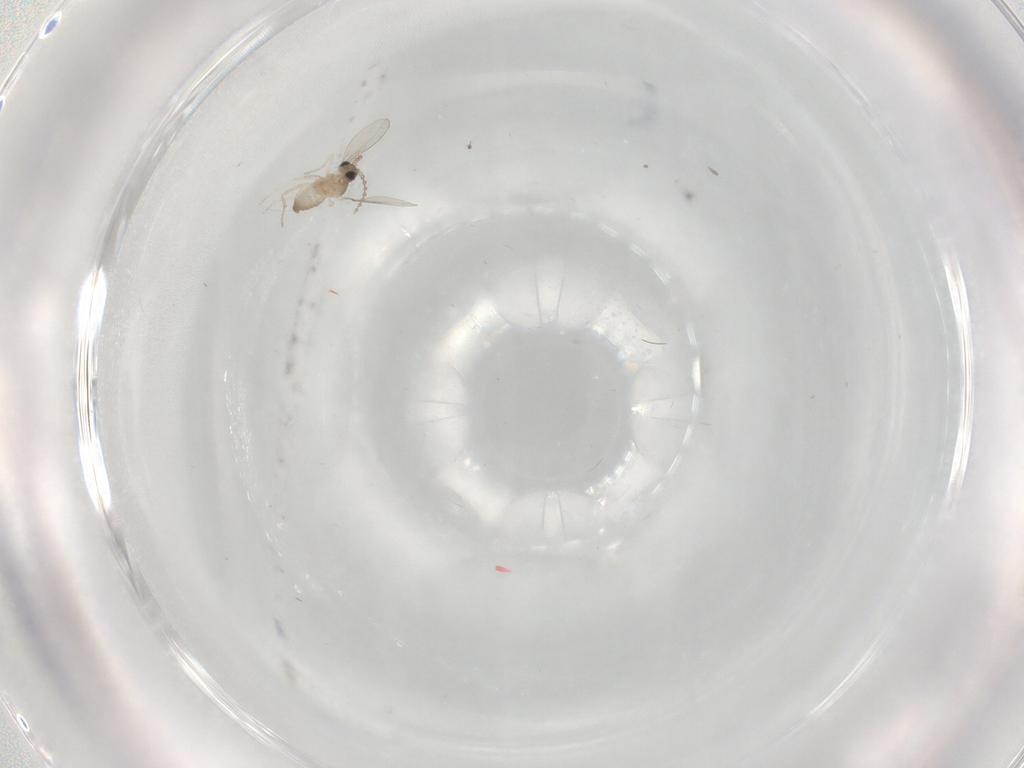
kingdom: Animalia
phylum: Arthropoda
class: Insecta
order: Diptera
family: Cecidomyiidae
